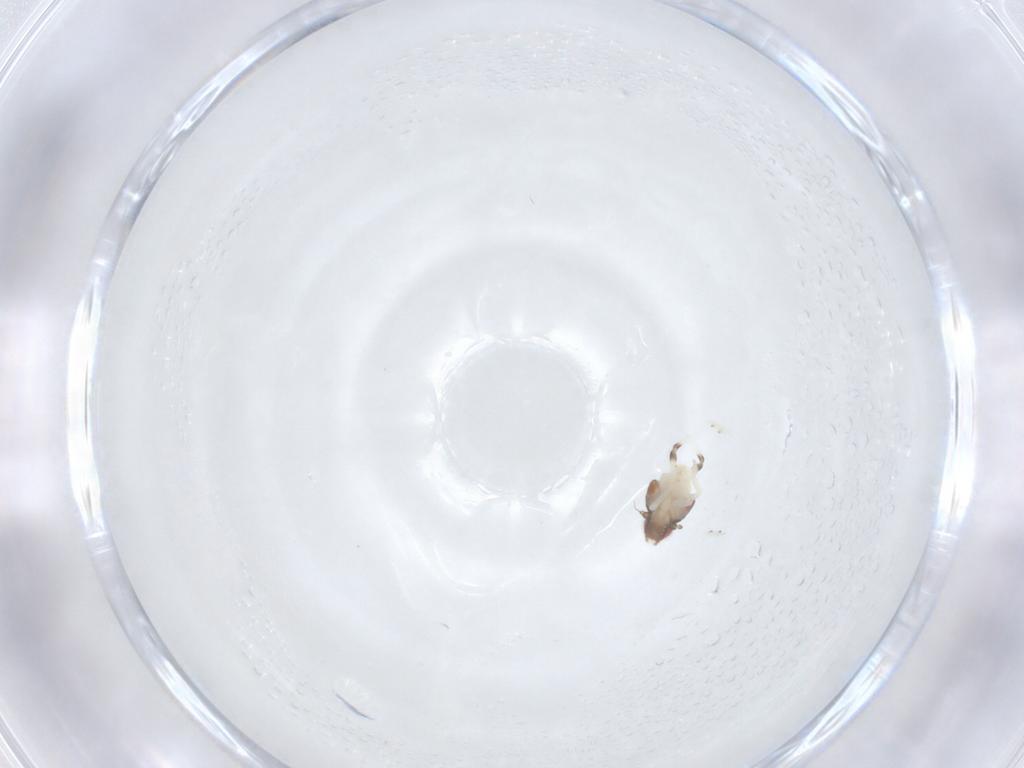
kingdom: Animalia
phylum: Arthropoda
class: Insecta
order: Hemiptera
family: Nogodinidae
